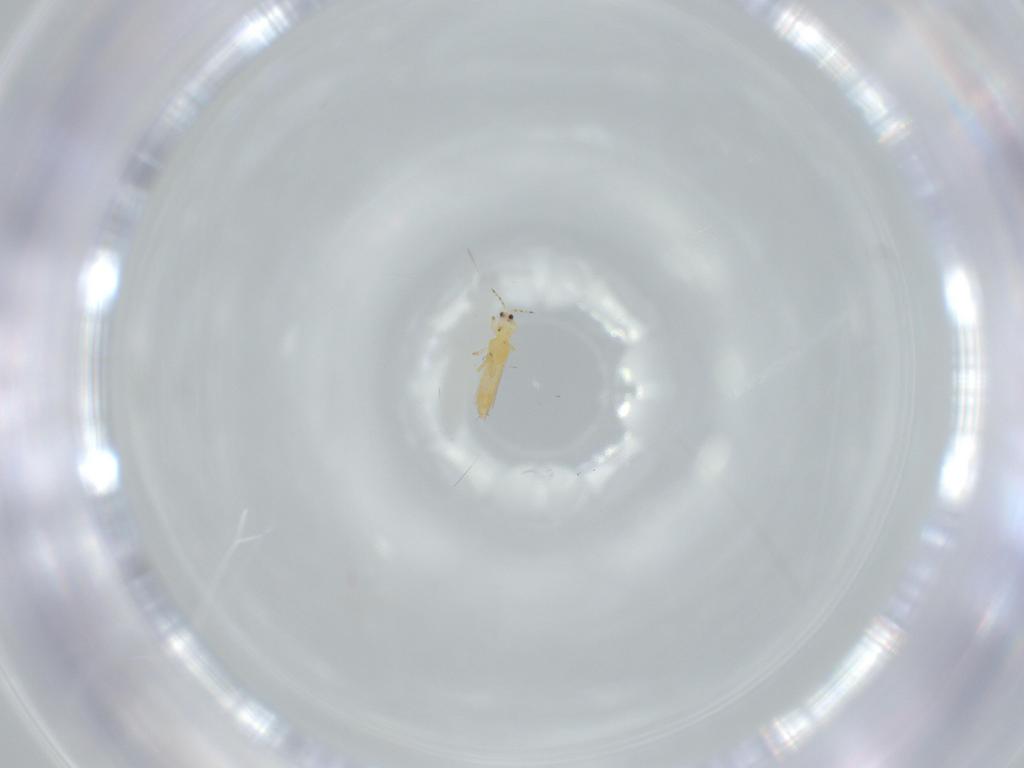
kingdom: Animalia
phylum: Arthropoda
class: Insecta
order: Thysanoptera
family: Thripidae
